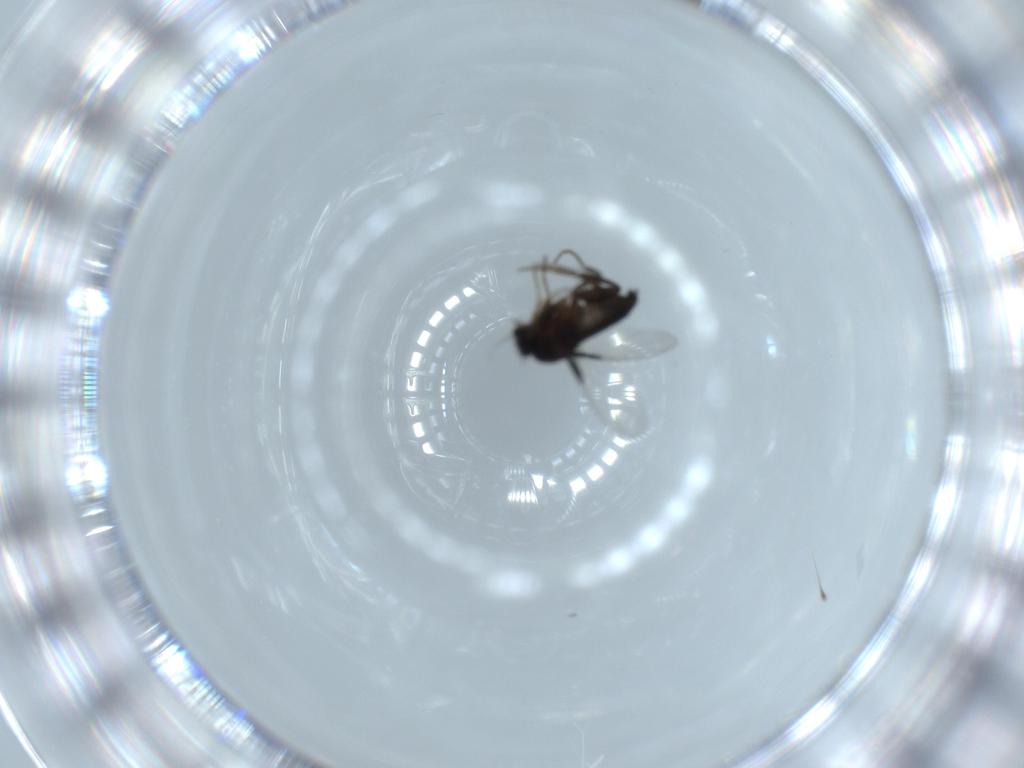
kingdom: Animalia
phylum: Arthropoda
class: Insecta
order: Diptera
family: Phoridae
